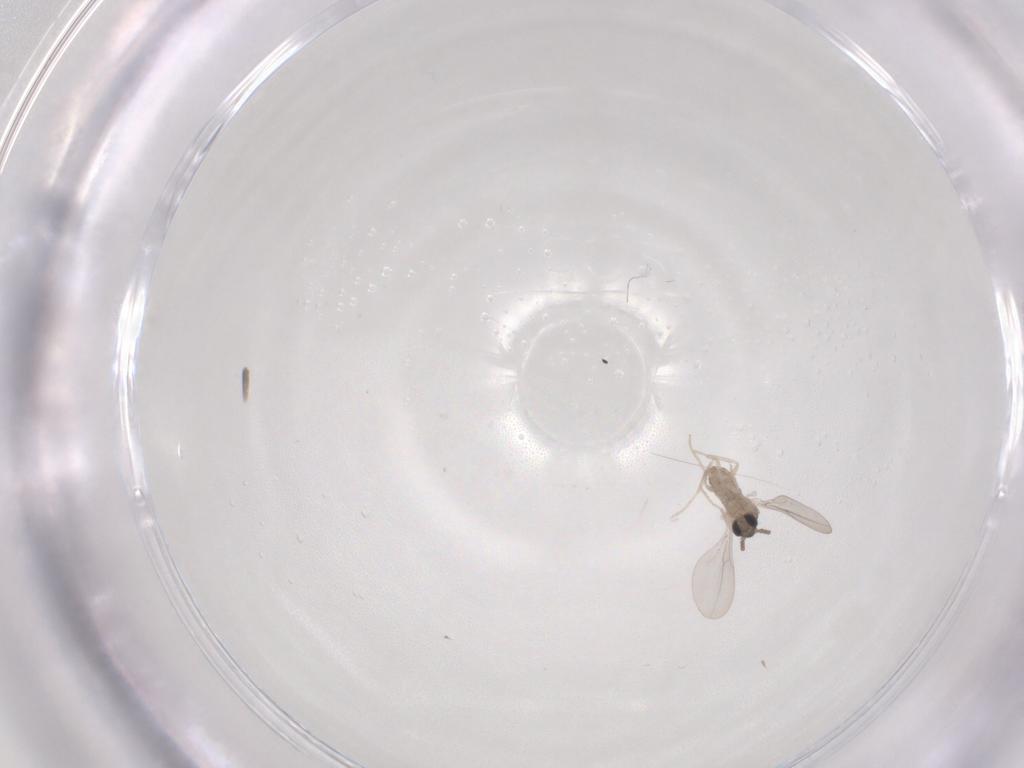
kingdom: Animalia
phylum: Arthropoda
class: Insecta
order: Diptera
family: Cecidomyiidae
